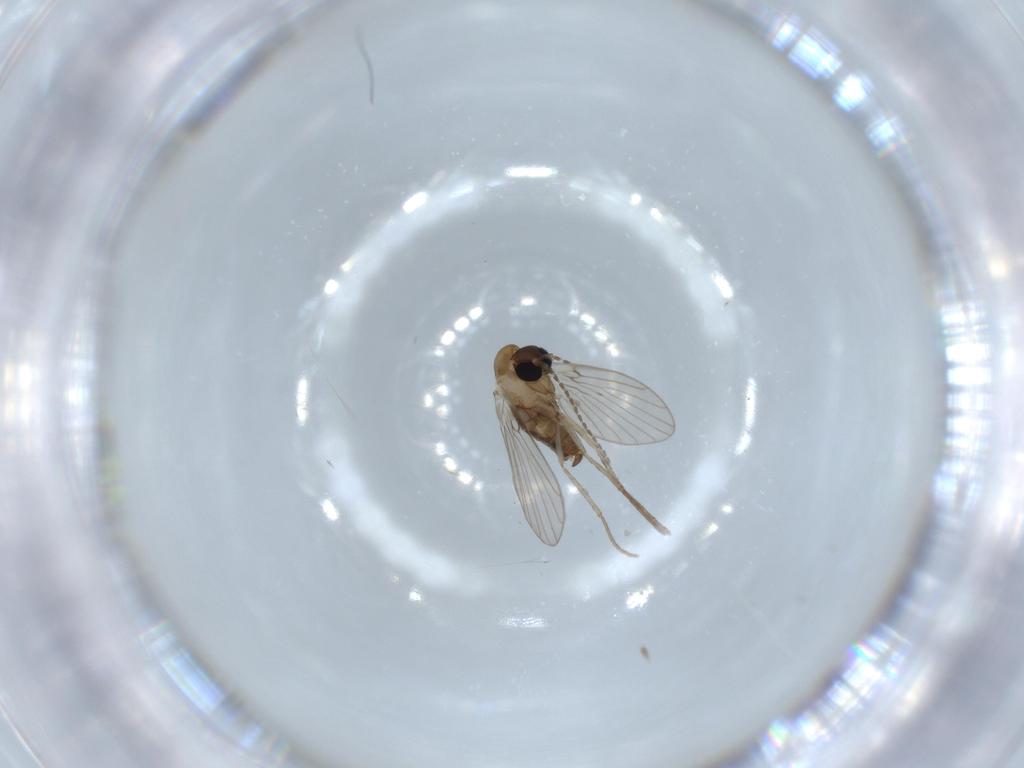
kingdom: Animalia
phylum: Arthropoda
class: Insecta
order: Diptera
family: Psychodidae
